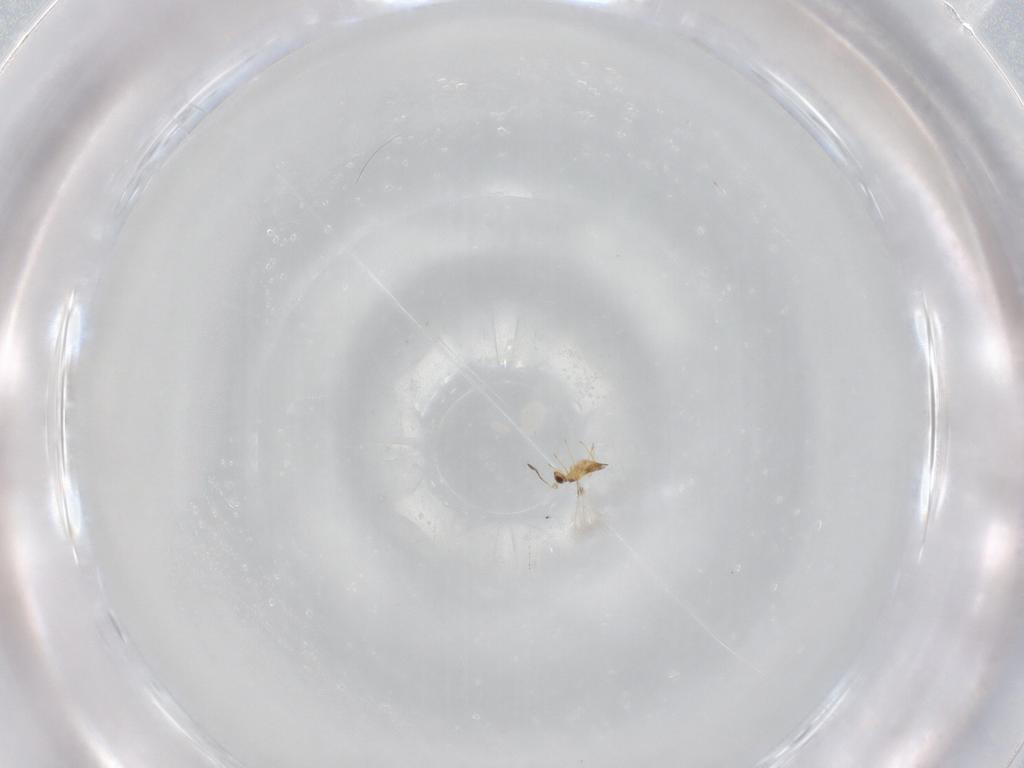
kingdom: Animalia
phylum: Arthropoda
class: Insecta
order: Hymenoptera
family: Mymaridae
